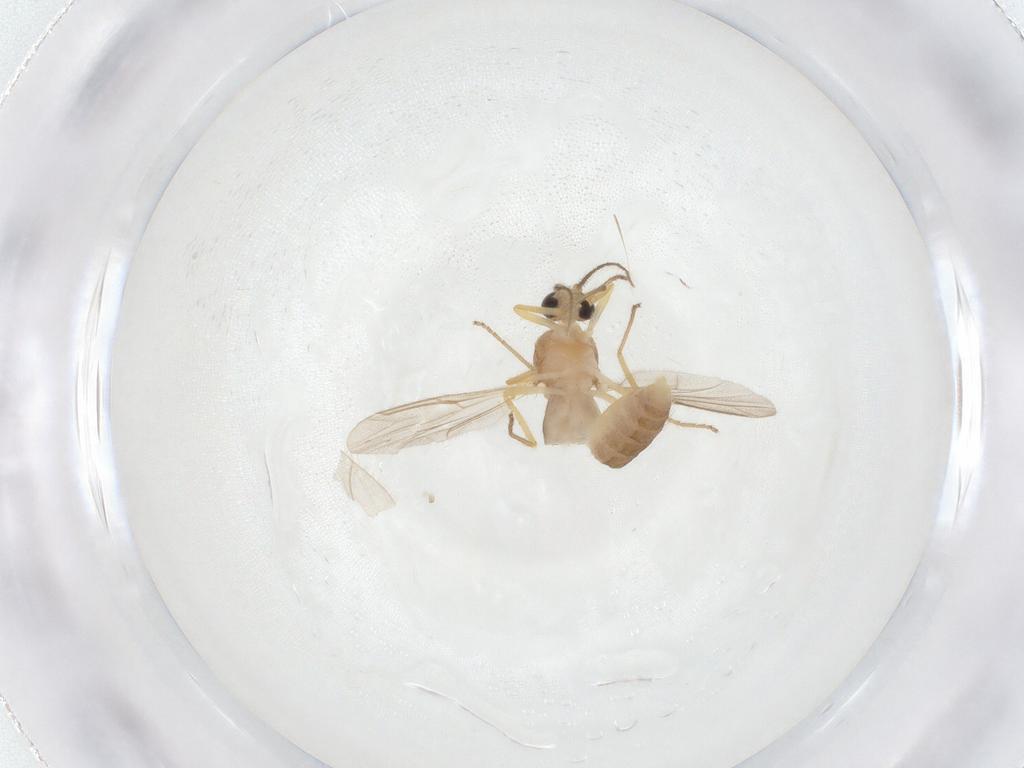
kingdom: Animalia
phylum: Arthropoda
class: Insecta
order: Diptera
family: Ceratopogonidae
